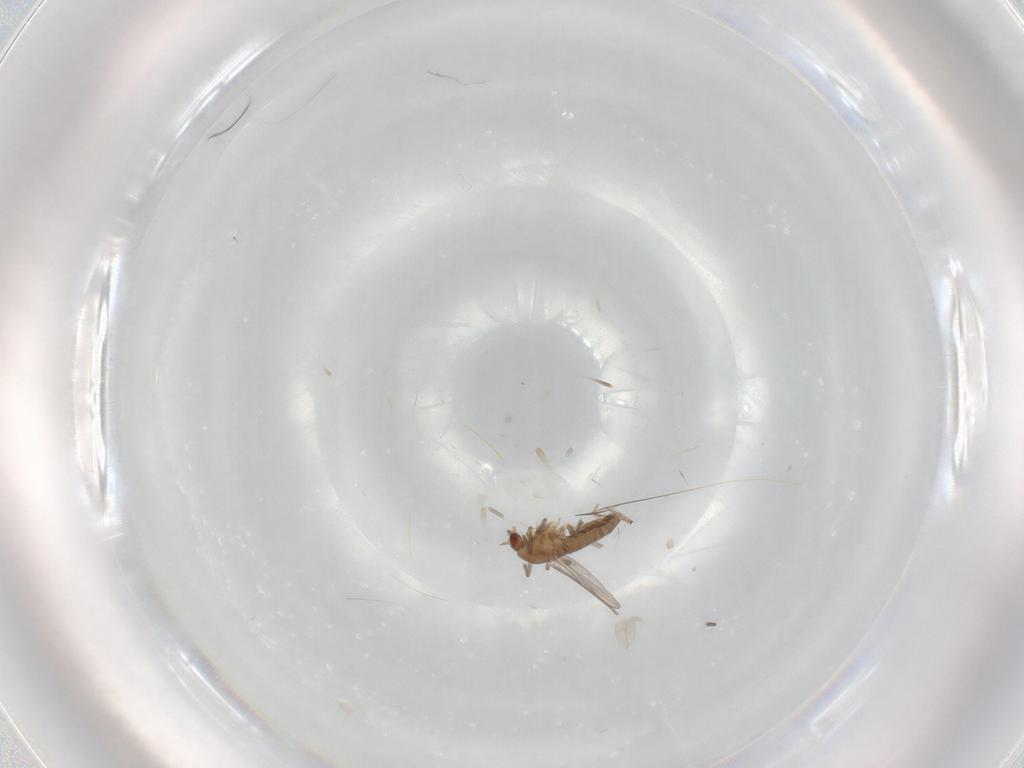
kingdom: Animalia
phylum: Arthropoda
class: Insecta
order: Diptera
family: Chironomidae
